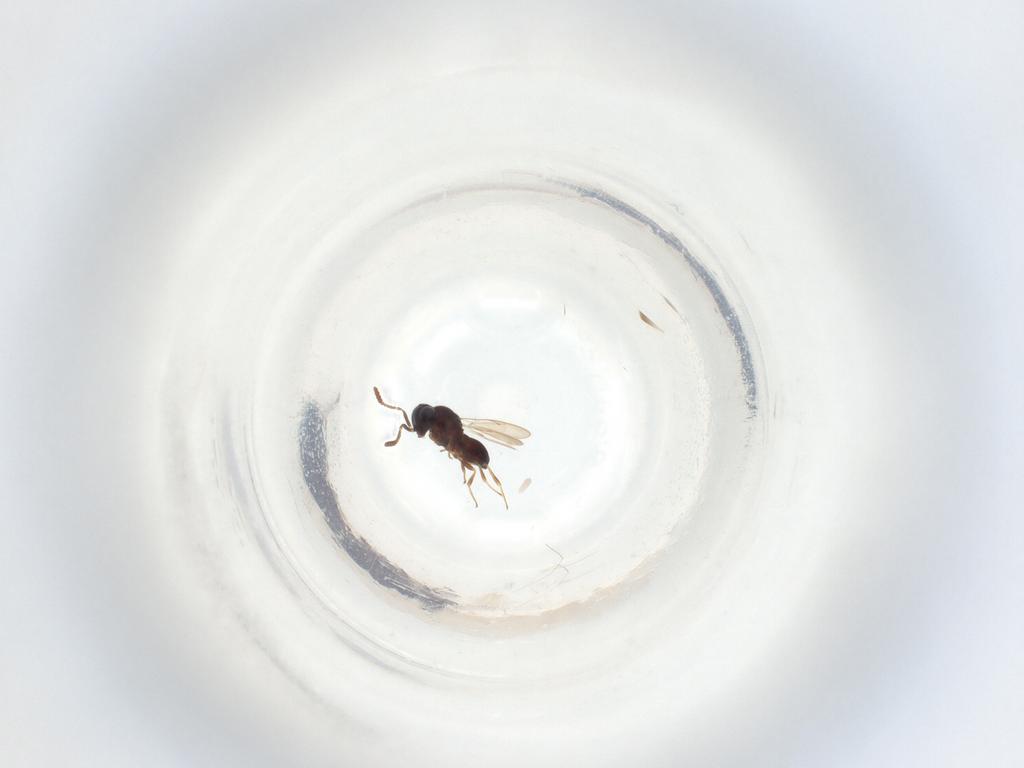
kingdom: Animalia
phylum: Arthropoda
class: Insecta
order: Hymenoptera
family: Scelionidae
